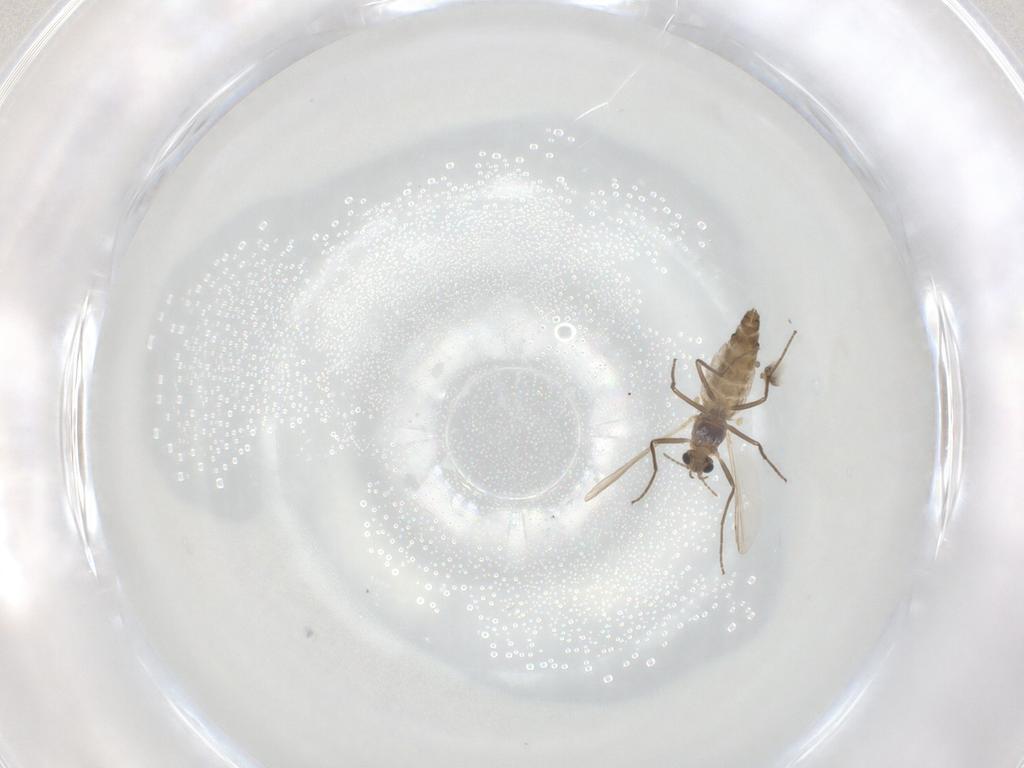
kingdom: Animalia
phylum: Arthropoda
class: Insecta
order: Diptera
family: Chironomidae
